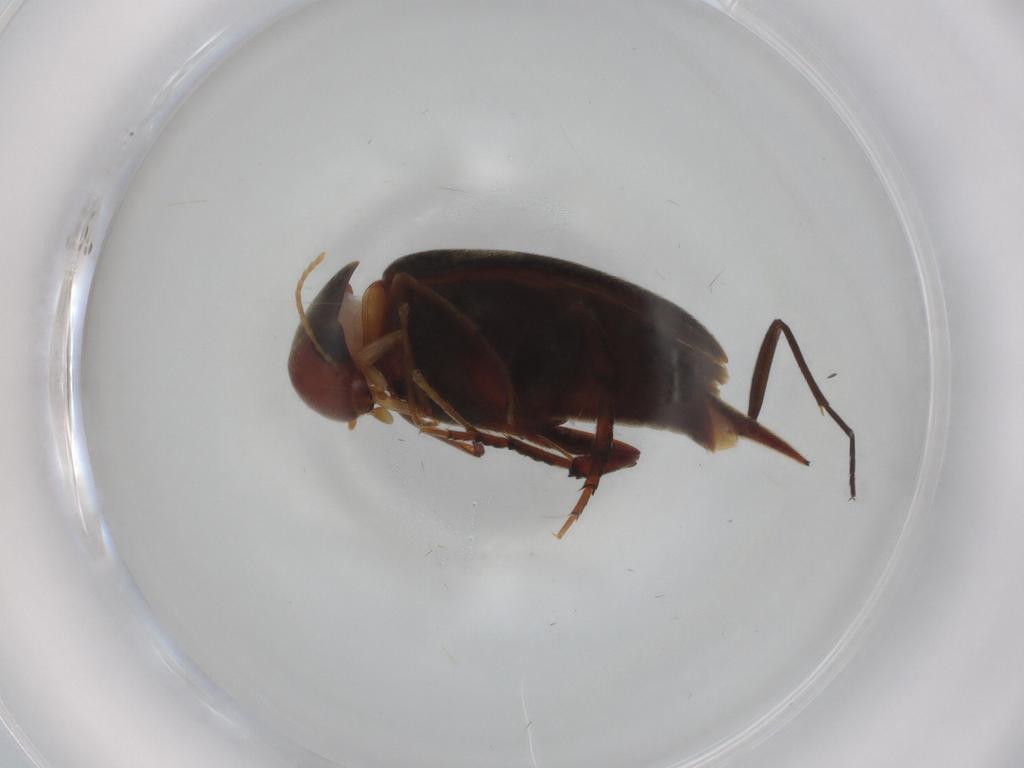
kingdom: Animalia
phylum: Arthropoda
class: Insecta
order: Coleoptera
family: Mordellidae
